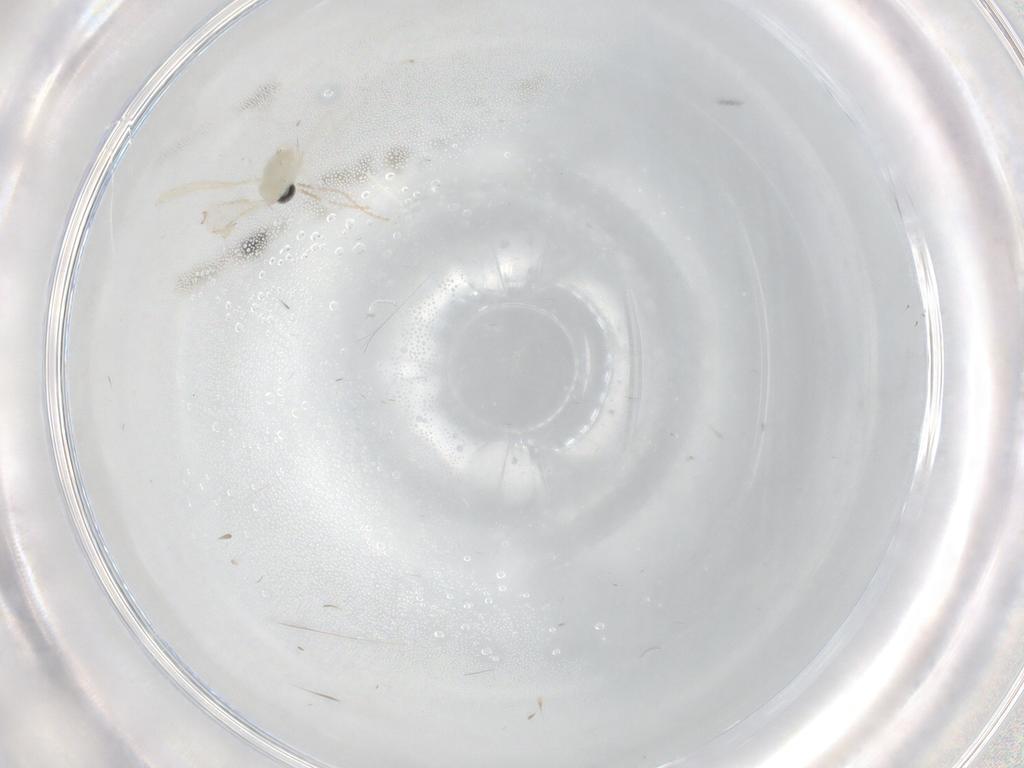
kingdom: Animalia
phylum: Arthropoda
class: Insecta
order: Diptera
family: Cecidomyiidae
